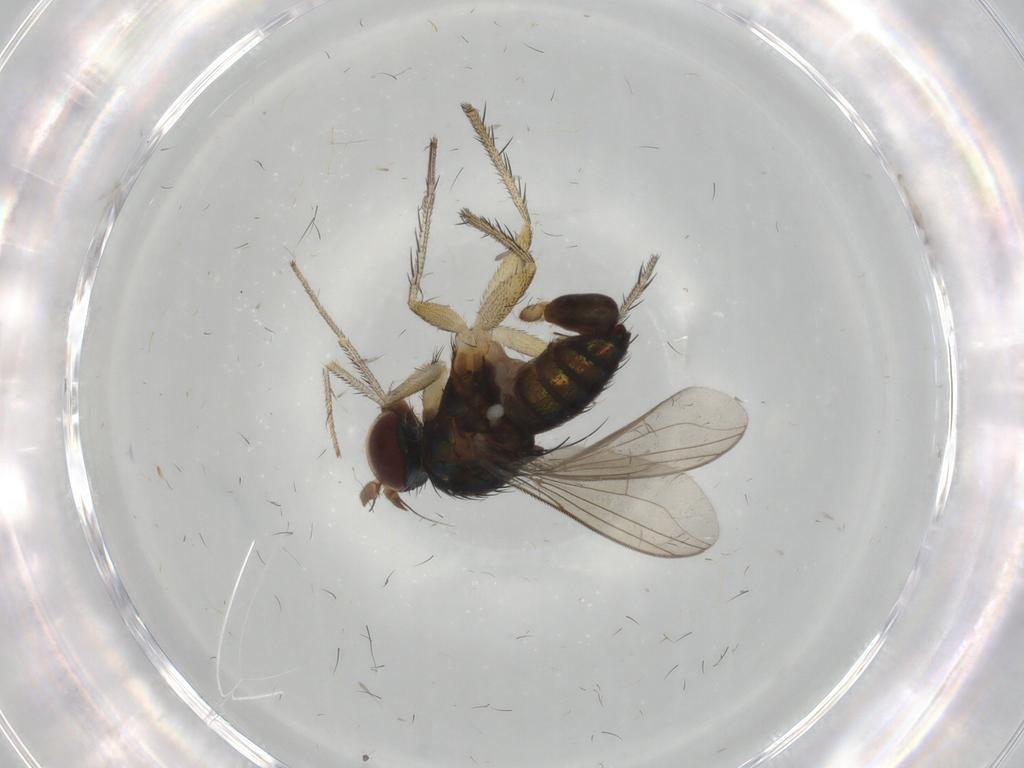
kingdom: Animalia
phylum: Arthropoda
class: Insecta
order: Diptera
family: Dolichopodidae
